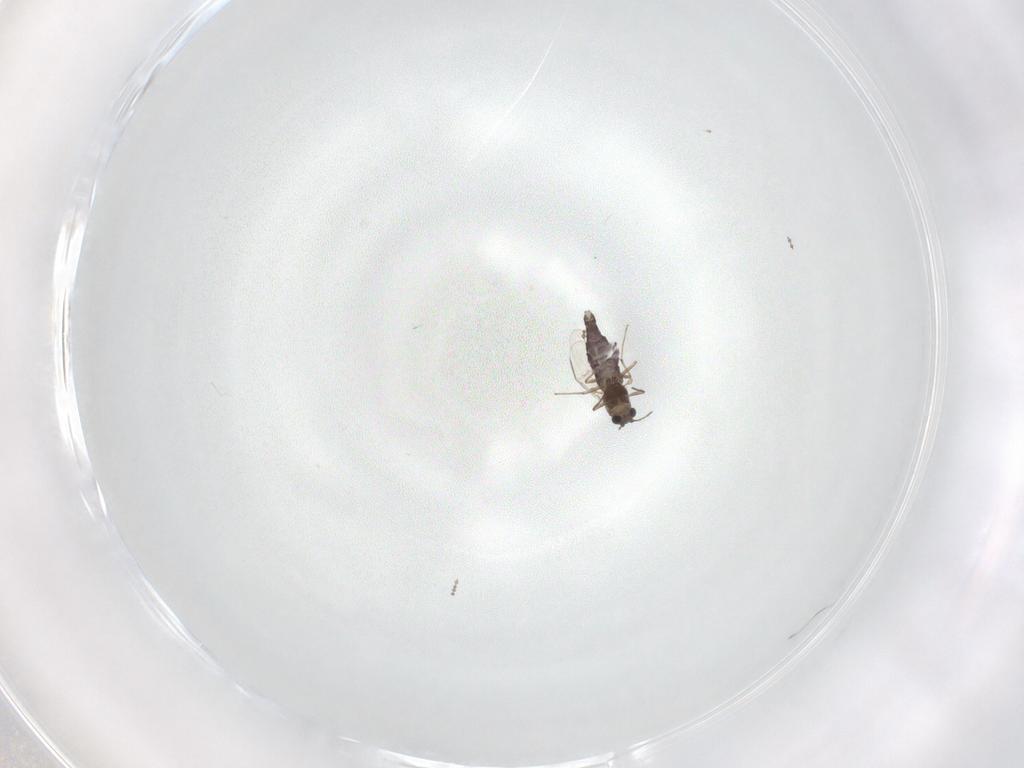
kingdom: Animalia
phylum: Arthropoda
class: Insecta
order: Diptera
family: Chironomidae
